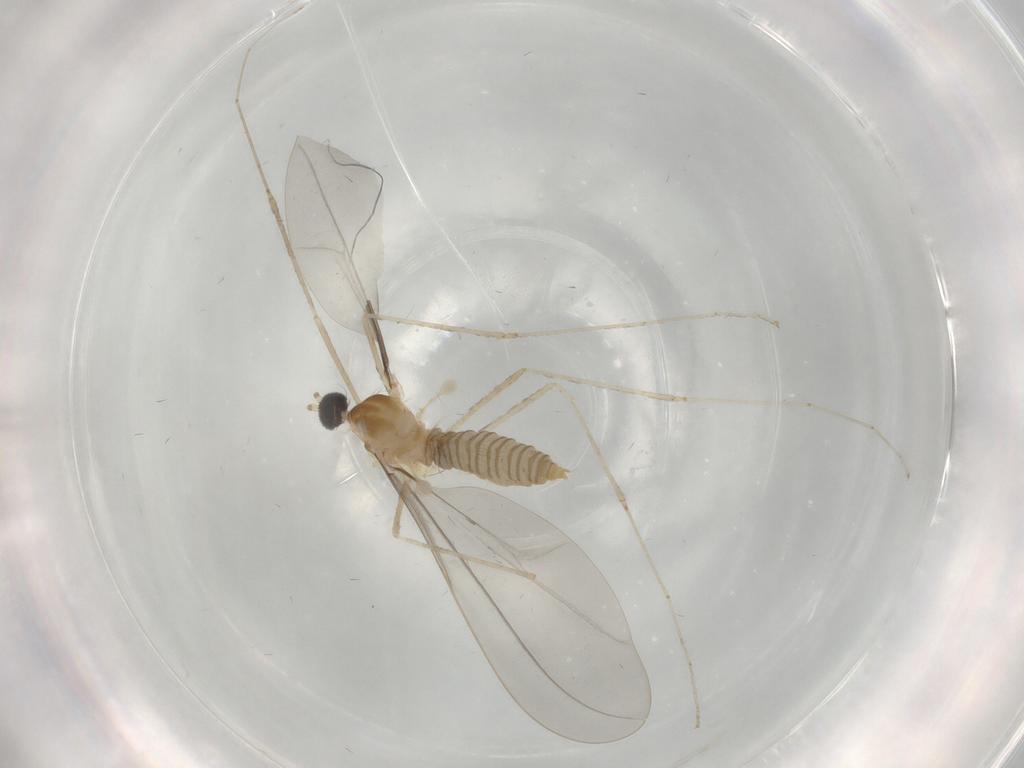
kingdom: Animalia
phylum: Arthropoda
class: Insecta
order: Diptera
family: Cecidomyiidae
